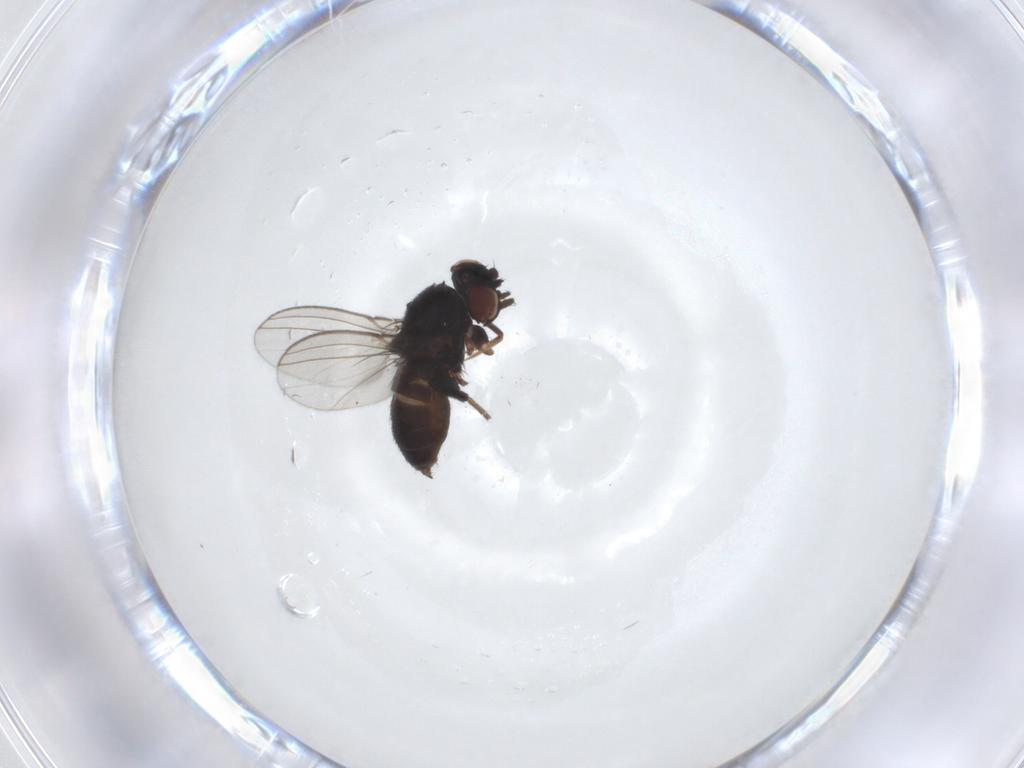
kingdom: Animalia
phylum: Arthropoda
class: Insecta
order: Diptera
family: Milichiidae
